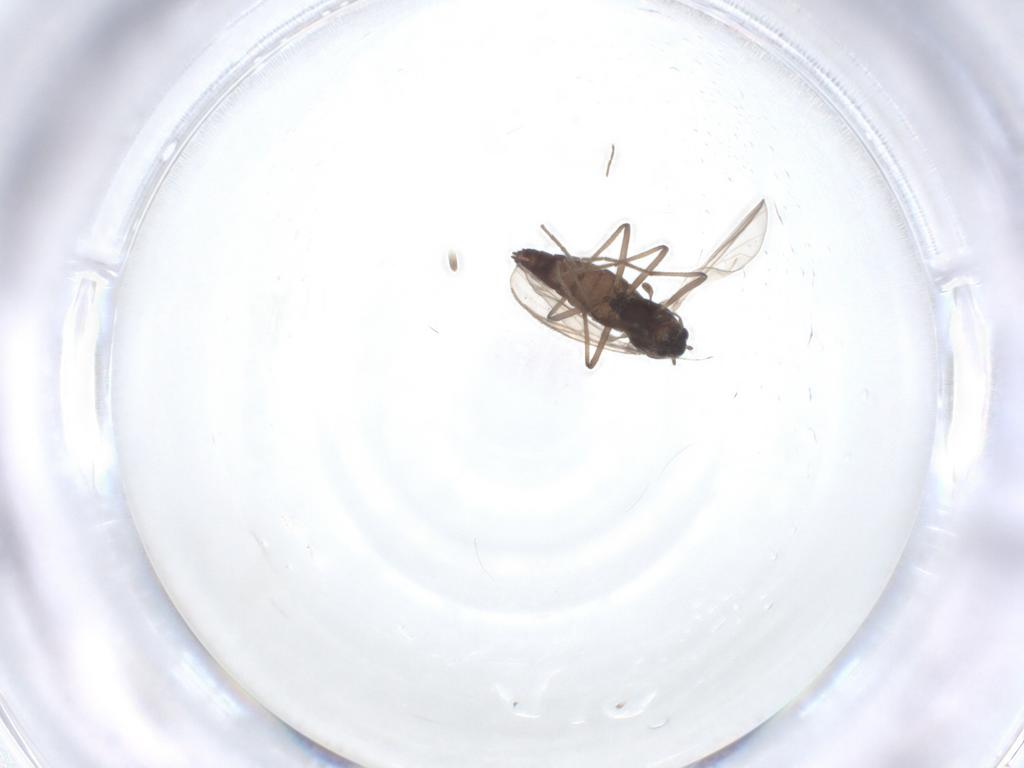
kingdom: Animalia
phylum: Arthropoda
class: Insecta
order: Diptera
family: Chironomidae
